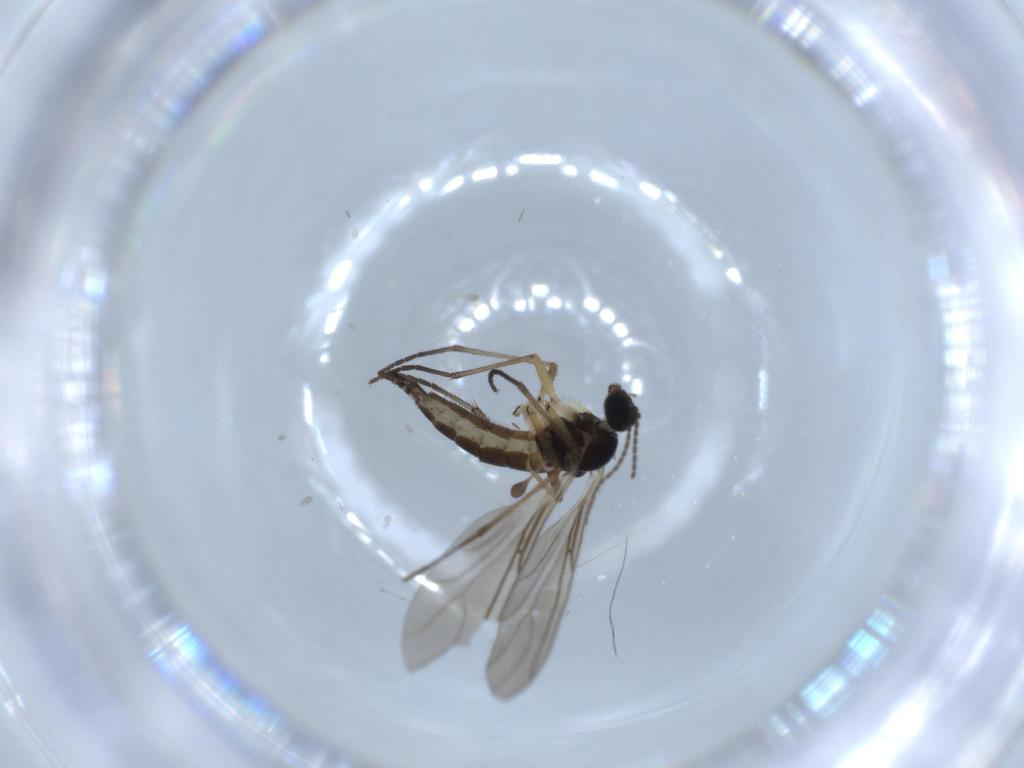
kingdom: Animalia
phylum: Arthropoda
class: Insecta
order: Diptera
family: Sciaridae
